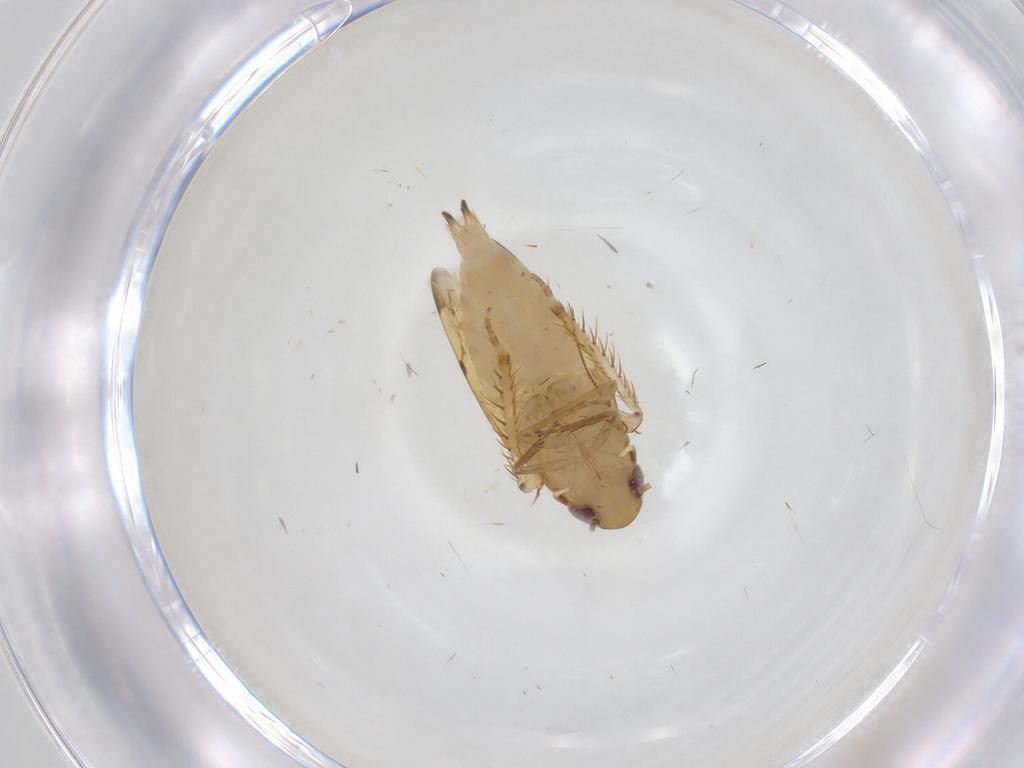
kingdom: Animalia
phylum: Arthropoda
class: Insecta
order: Hemiptera
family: Cicadellidae
